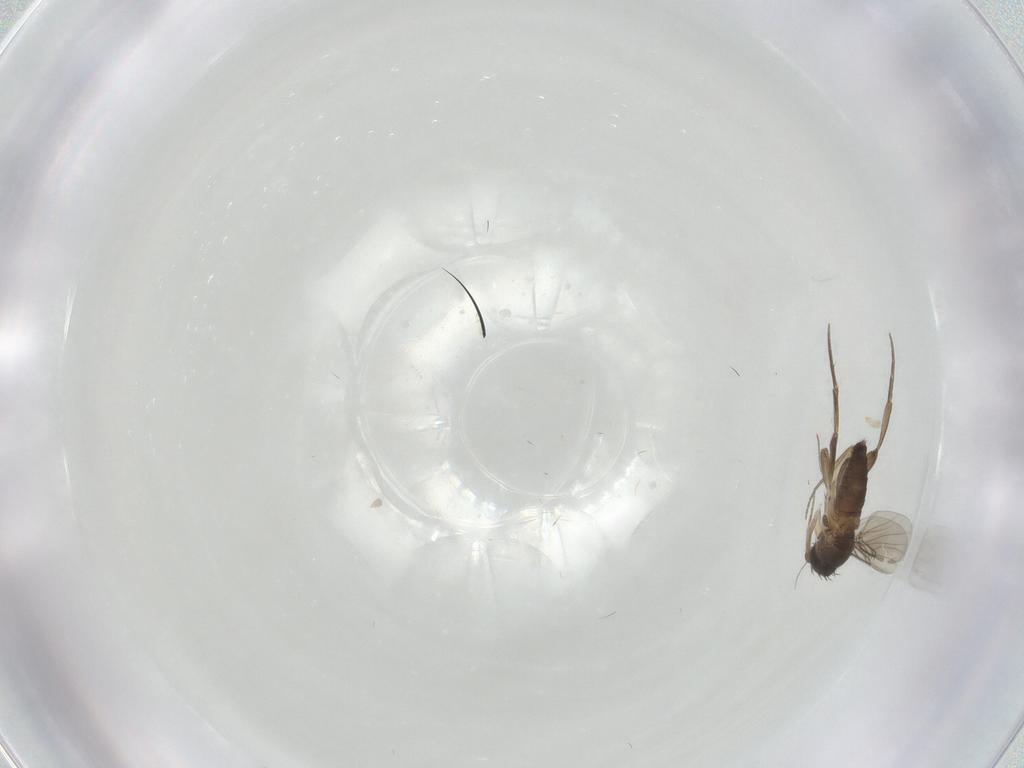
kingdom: Animalia
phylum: Arthropoda
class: Insecta
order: Diptera
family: Phoridae
